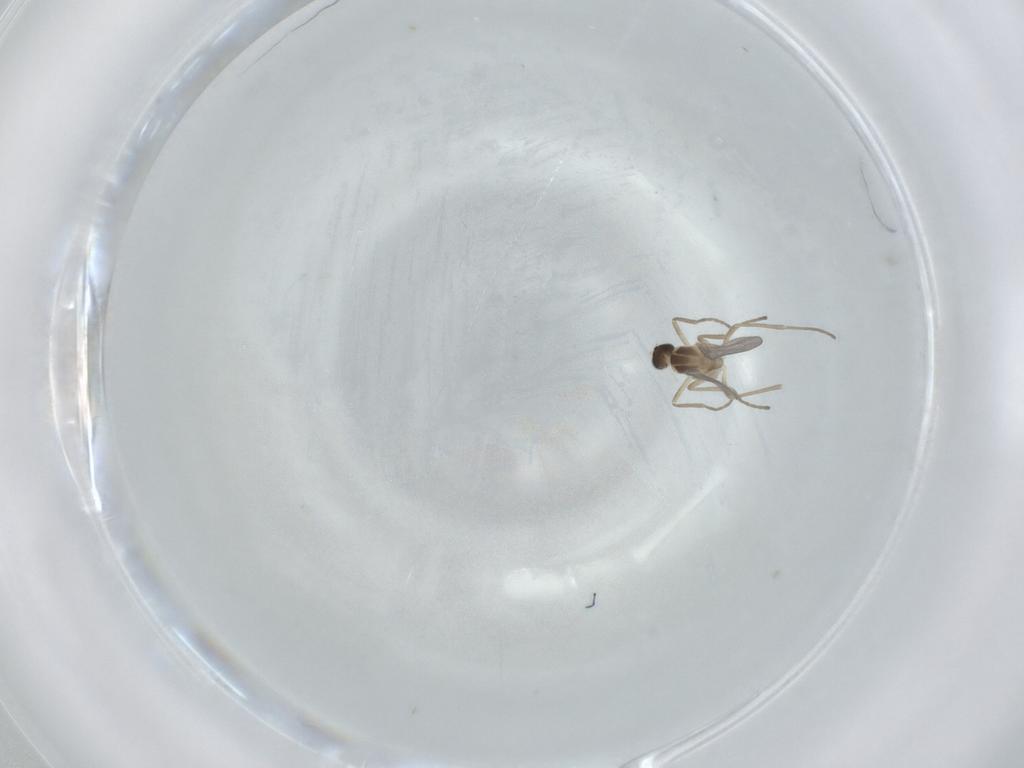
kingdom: Animalia
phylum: Arthropoda
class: Insecta
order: Diptera
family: Cecidomyiidae
